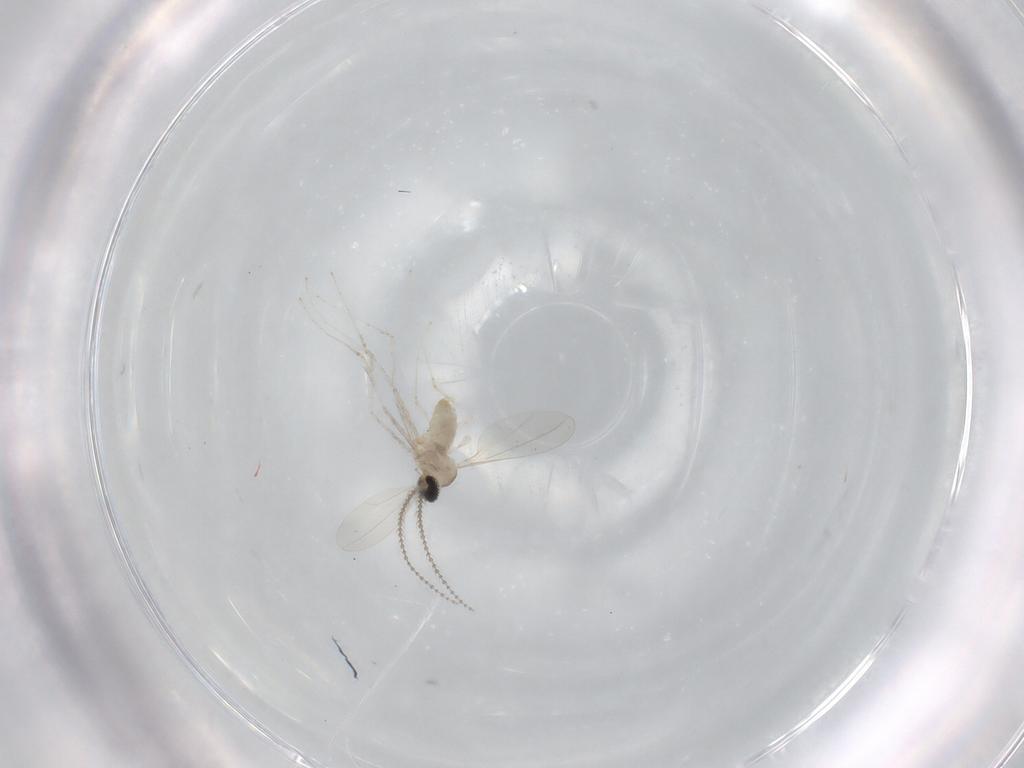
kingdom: Animalia
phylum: Arthropoda
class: Insecta
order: Diptera
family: Cecidomyiidae
